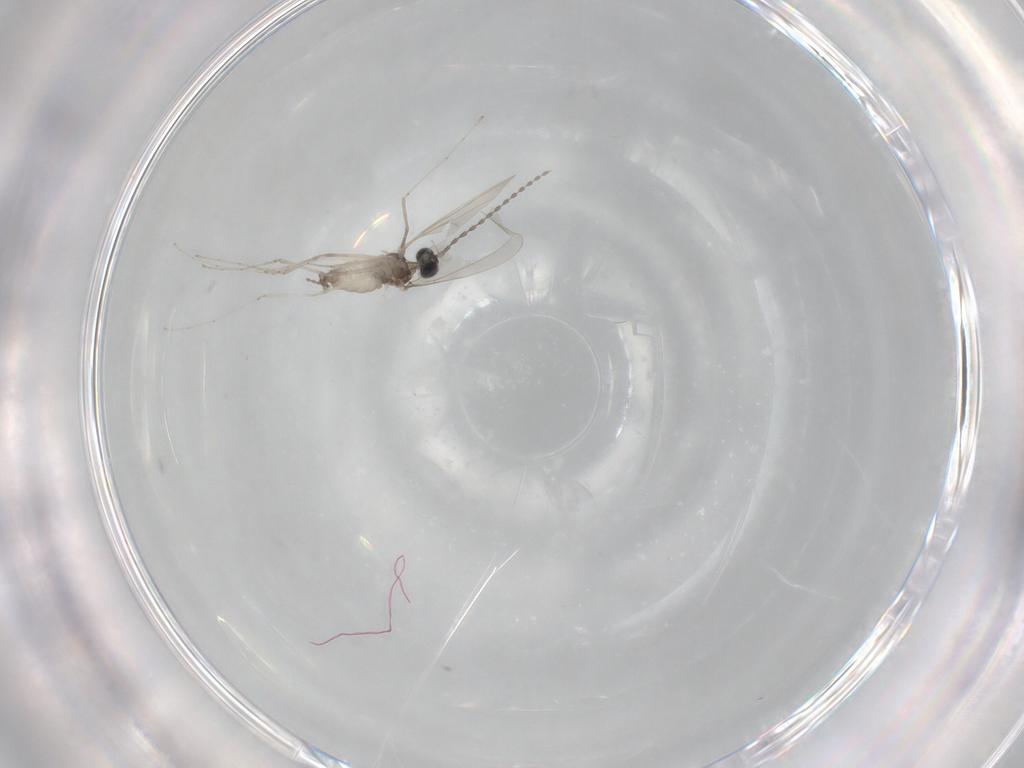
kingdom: Animalia
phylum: Arthropoda
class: Insecta
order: Diptera
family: Cecidomyiidae
